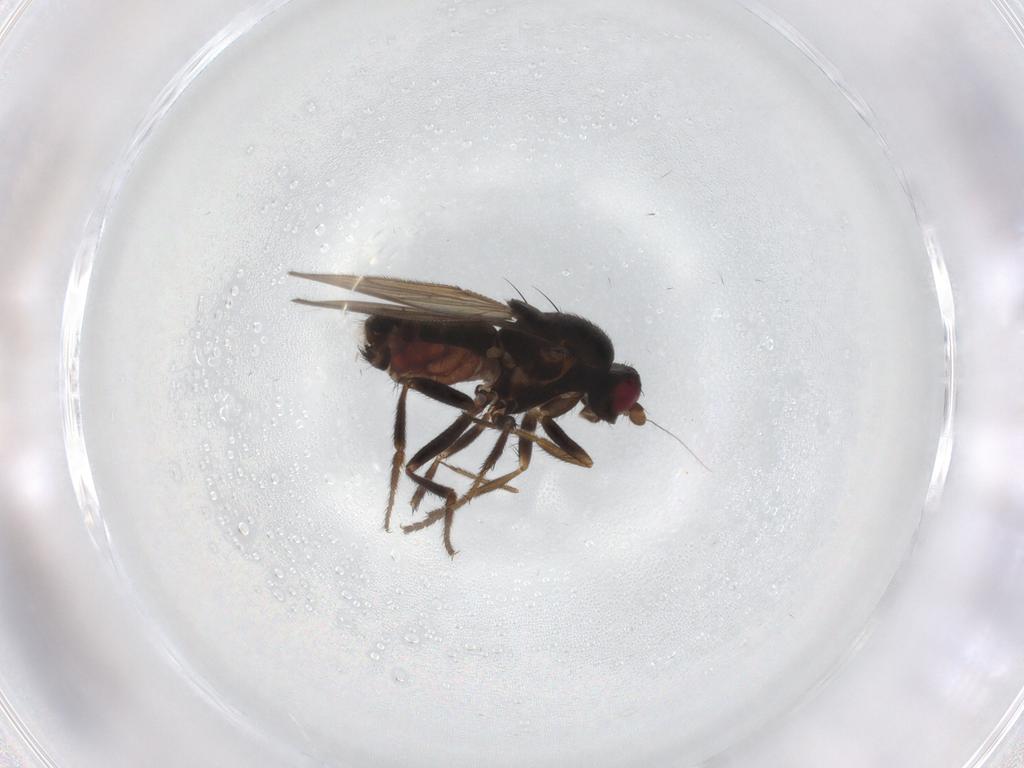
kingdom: Animalia
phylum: Arthropoda
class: Insecta
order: Diptera
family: Sphaeroceridae
